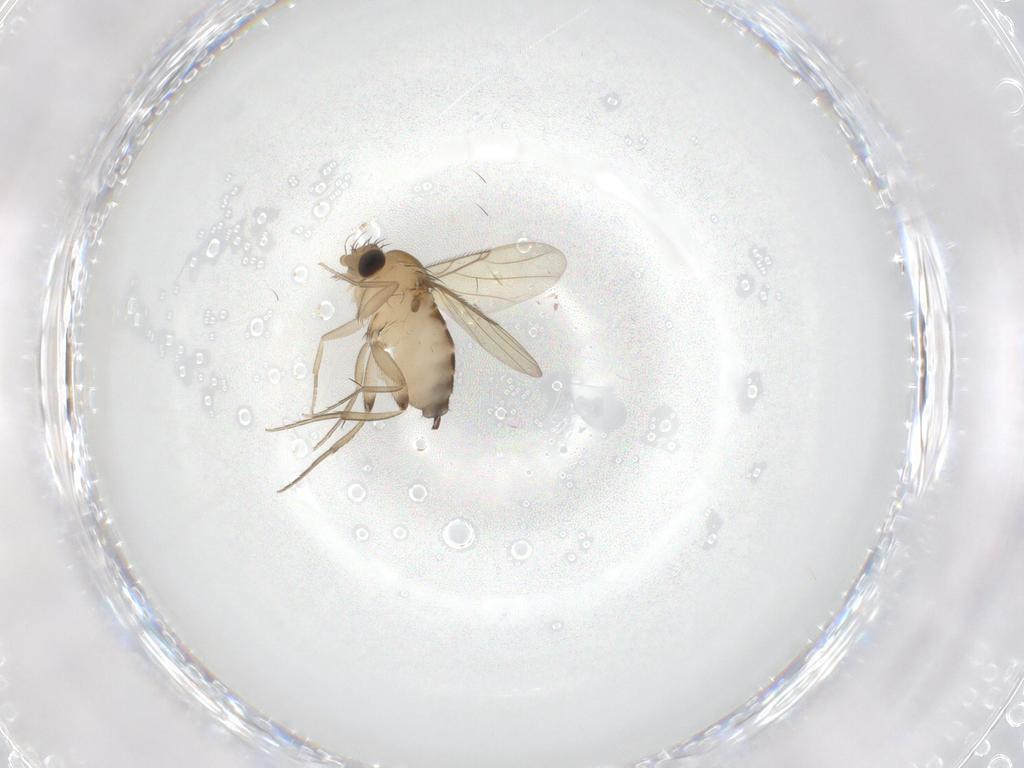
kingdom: Animalia
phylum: Arthropoda
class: Insecta
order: Diptera
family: Phoridae
